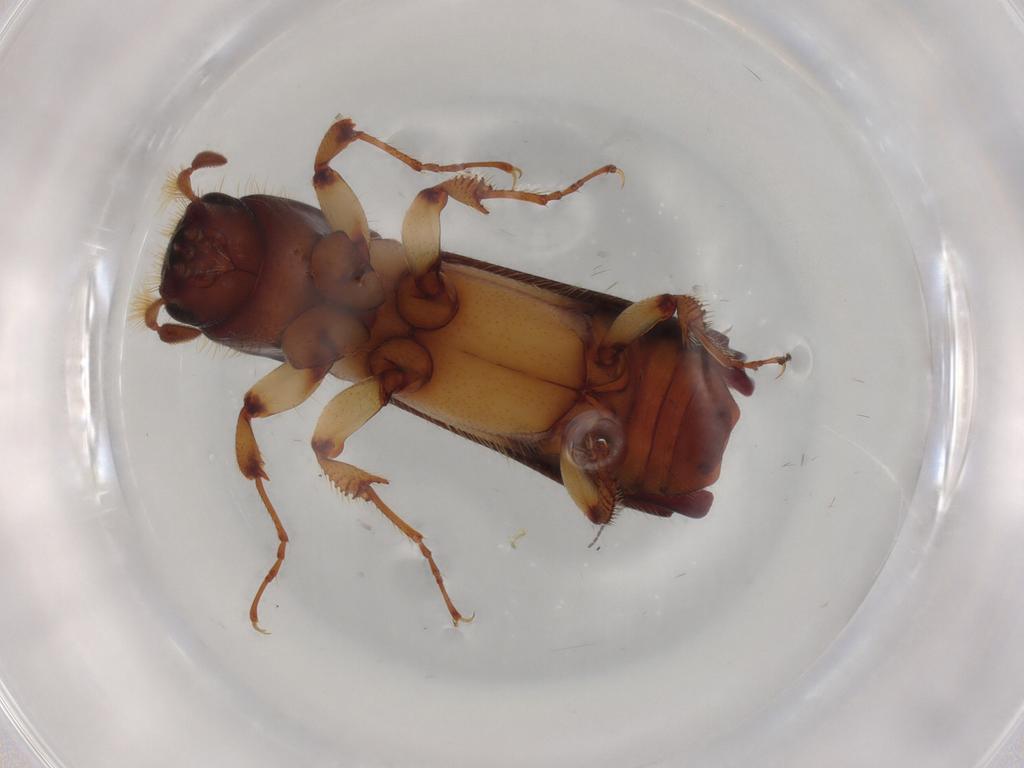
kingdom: Animalia
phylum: Arthropoda
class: Insecta
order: Coleoptera
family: Curculionidae
